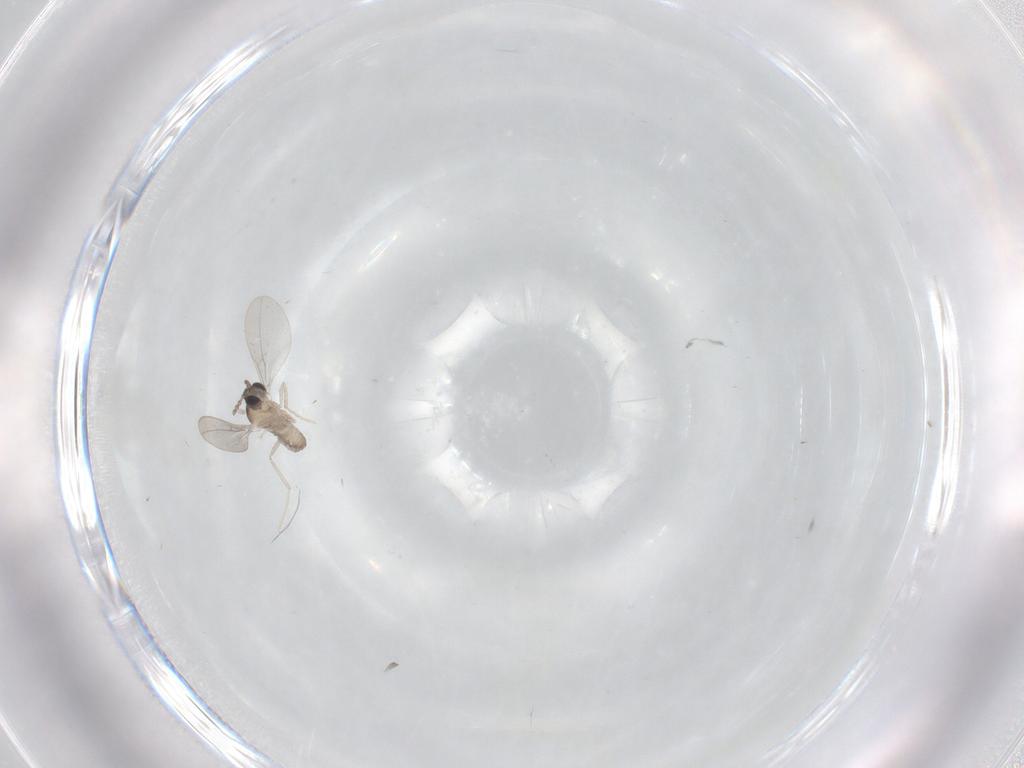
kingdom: Animalia
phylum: Arthropoda
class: Insecta
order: Diptera
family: Cecidomyiidae
